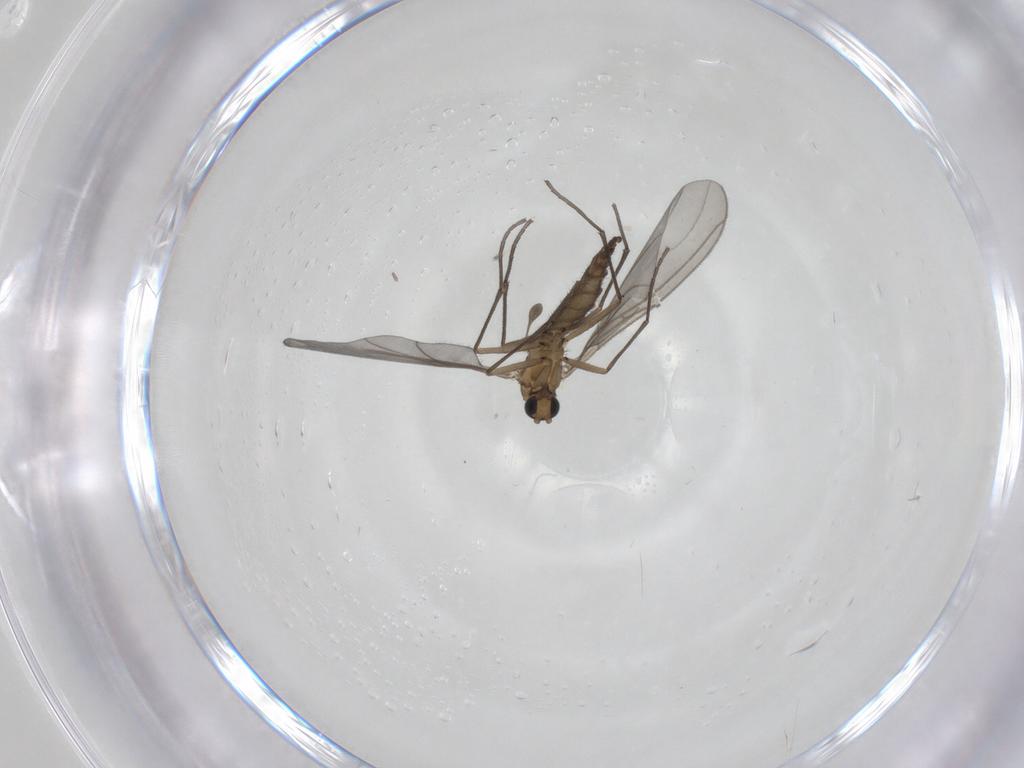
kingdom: Animalia
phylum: Arthropoda
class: Insecta
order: Diptera
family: Sciaridae
